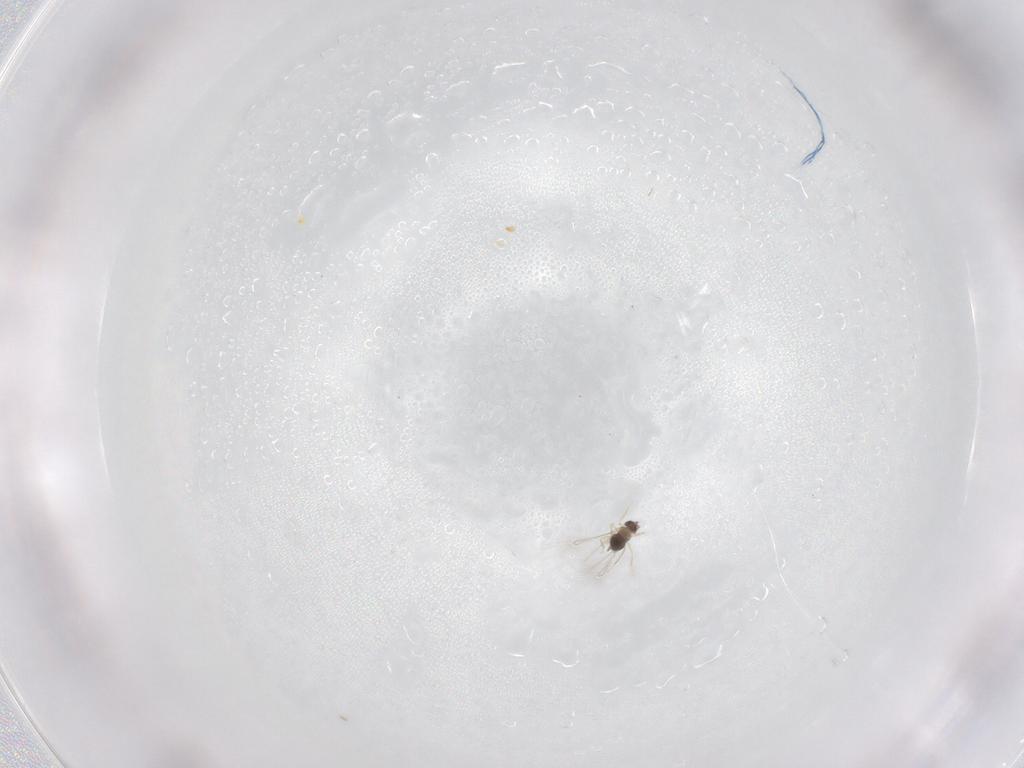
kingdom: Animalia
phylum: Arthropoda
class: Insecta
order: Hymenoptera
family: Mymaridae
